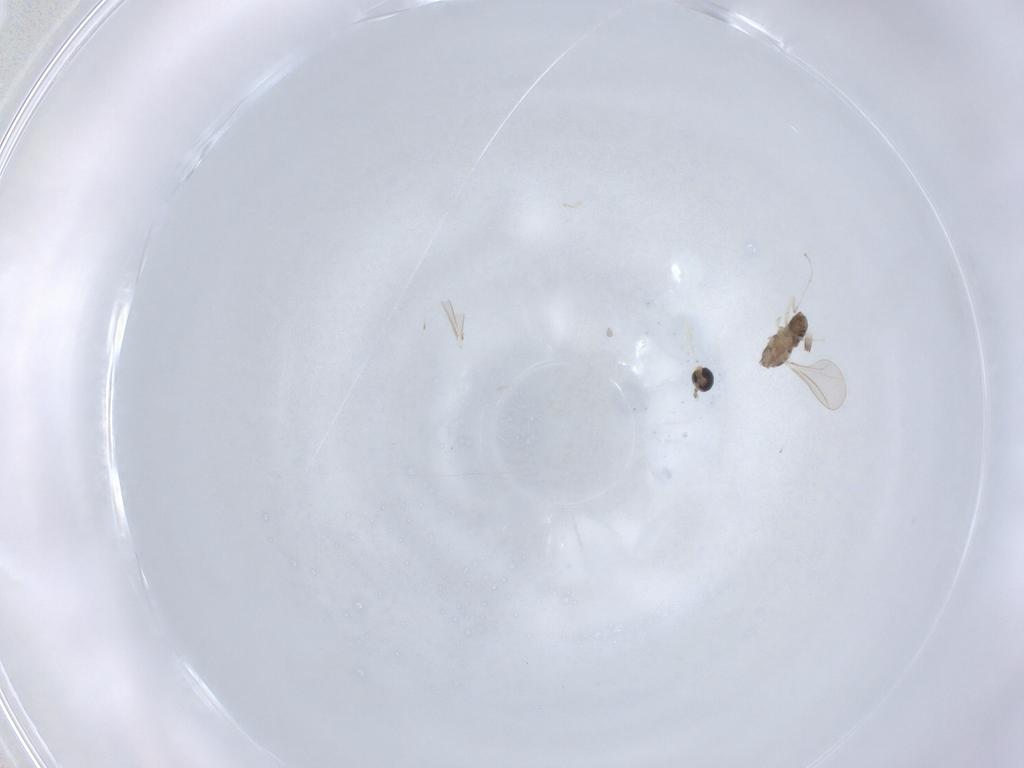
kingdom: Animalia
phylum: Arthropoda
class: Insecta
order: Diptera
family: Cecidomyiidae
